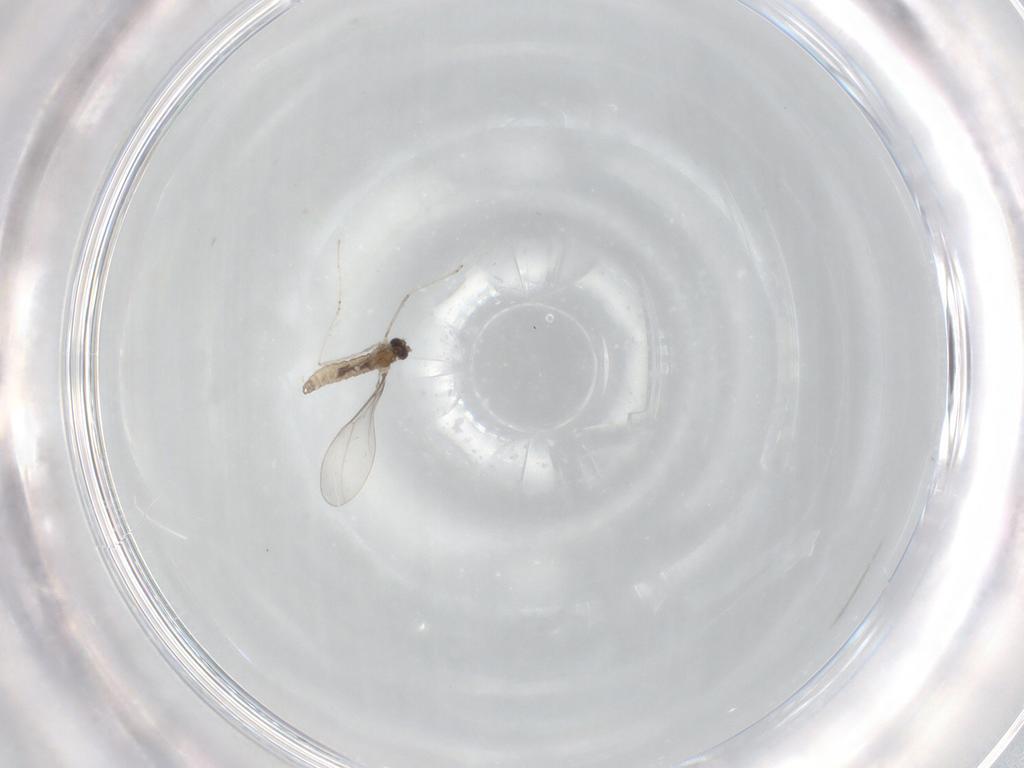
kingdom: Animalia
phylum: Arthropoda
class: Insecta
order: Diptera
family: Cecidomyiidae
